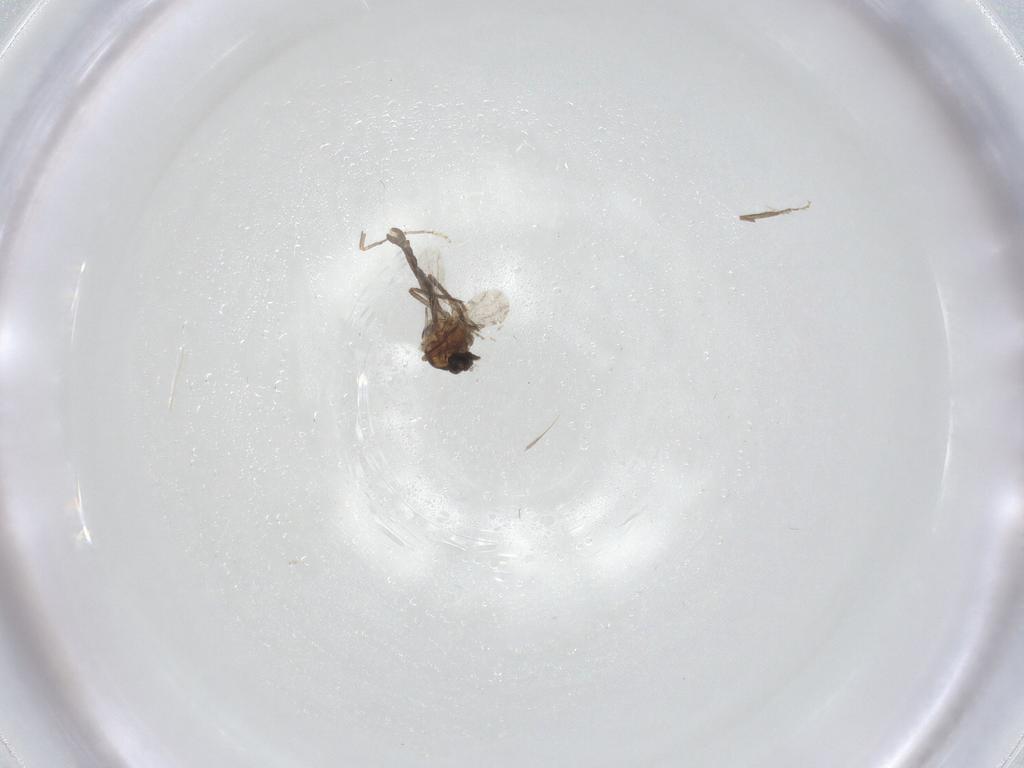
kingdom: Animalia
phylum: Arthropoda
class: Insecta
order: Diptera
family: Ceratopogonidae
